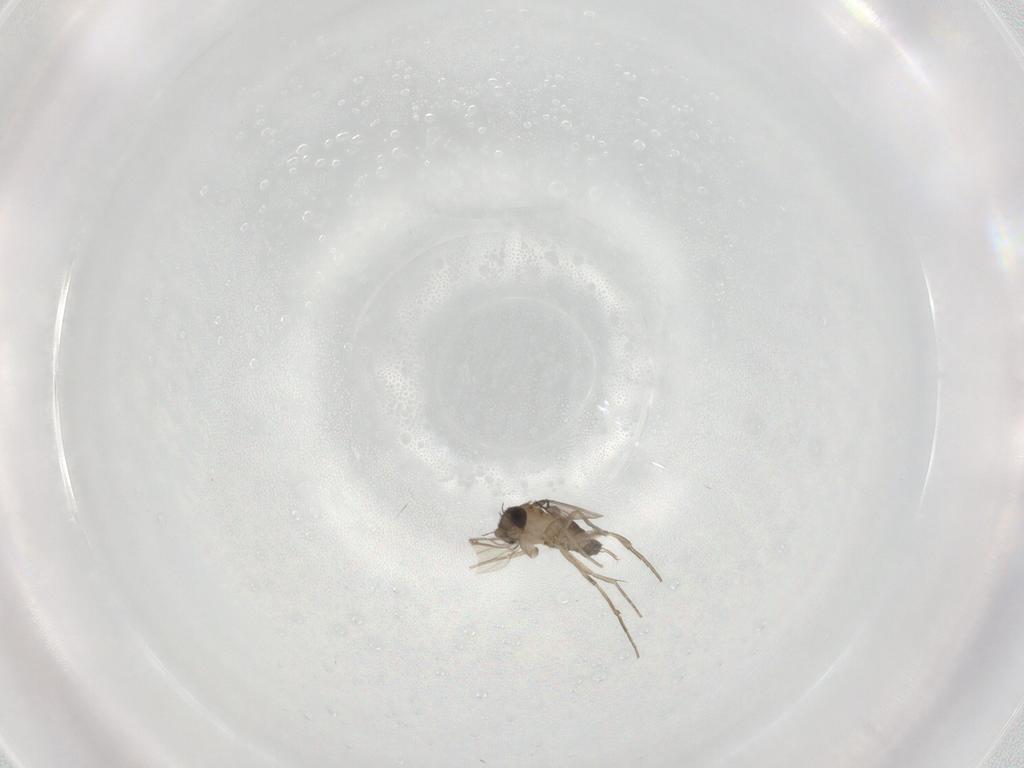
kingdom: Animalia
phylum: Arthropoda
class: Insecta
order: Diptera
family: Phoridae
